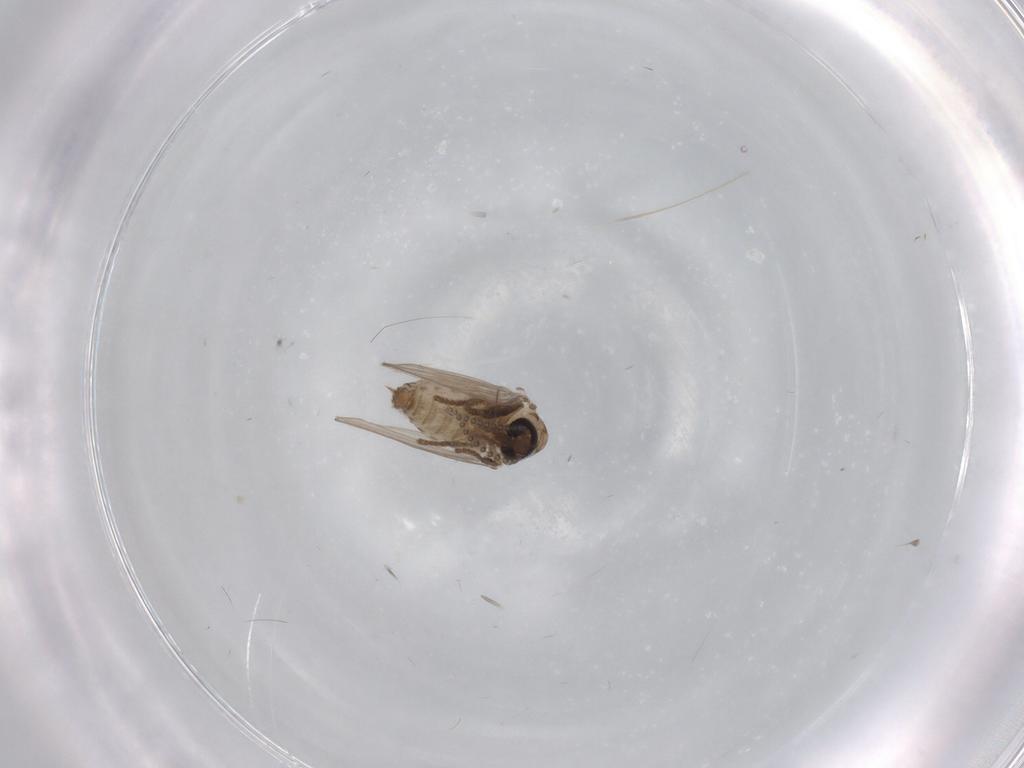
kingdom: Animalia
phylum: Arthropoda
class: Insecta
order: Diptera
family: Psychodidae
